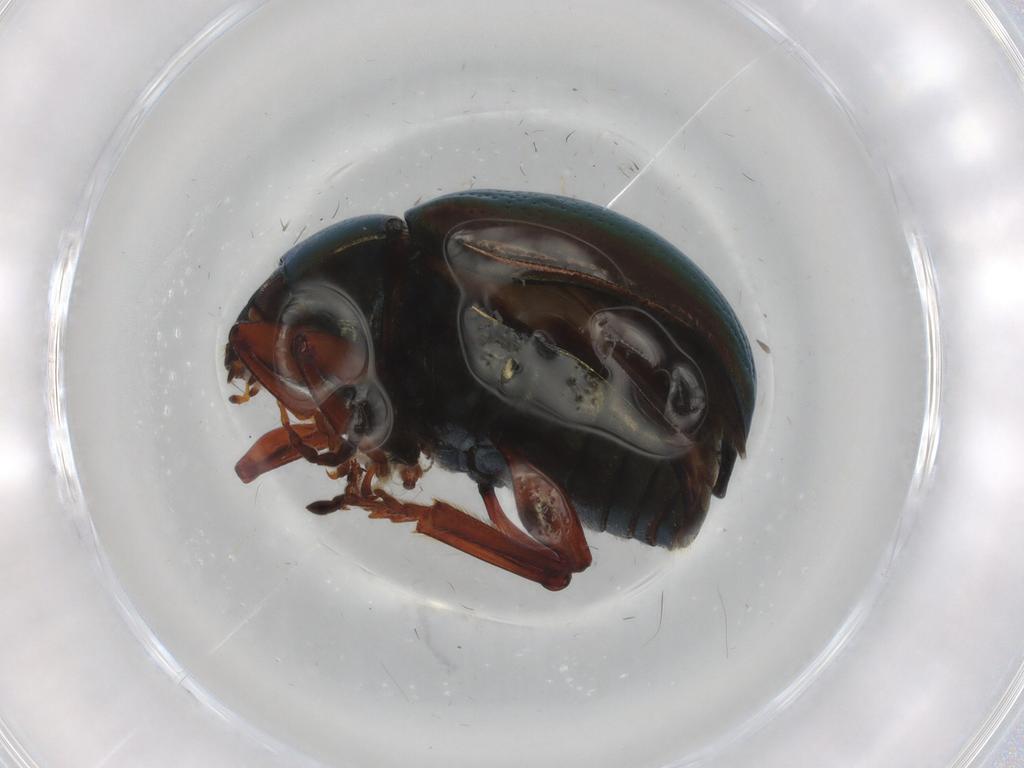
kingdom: Animalia
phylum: Arthropoda
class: Insecta
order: Coleoptera
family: Chrysomelidae
